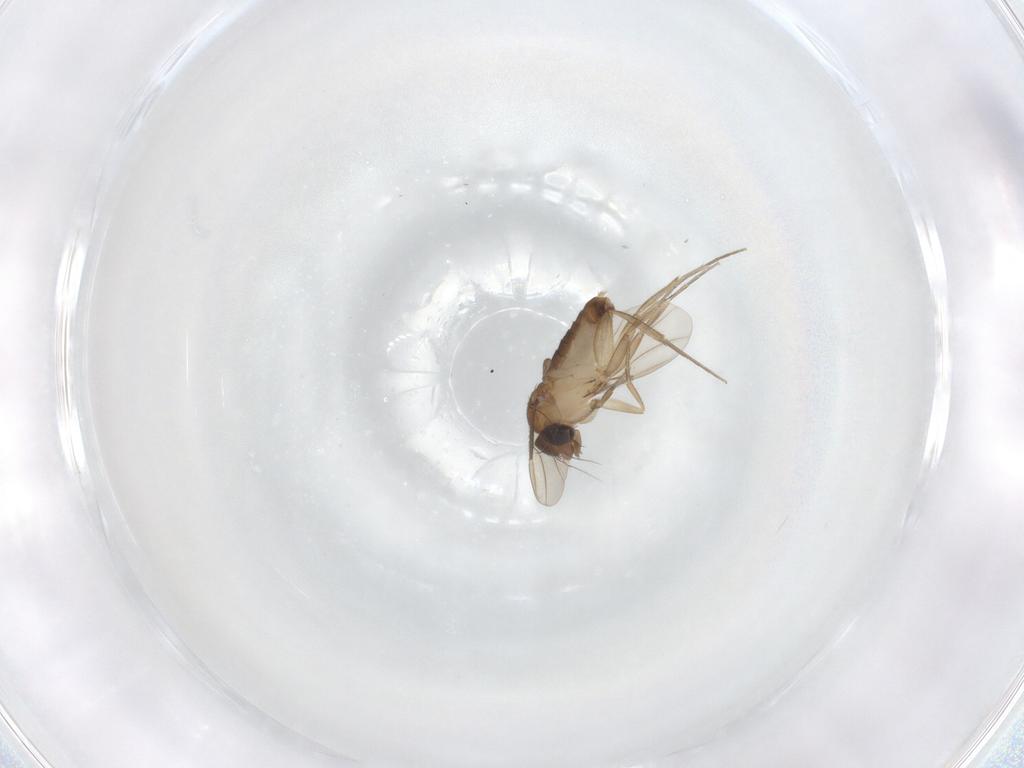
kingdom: Animalia
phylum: Arthropoda
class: Insecta
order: Diptera
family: Phoridae
